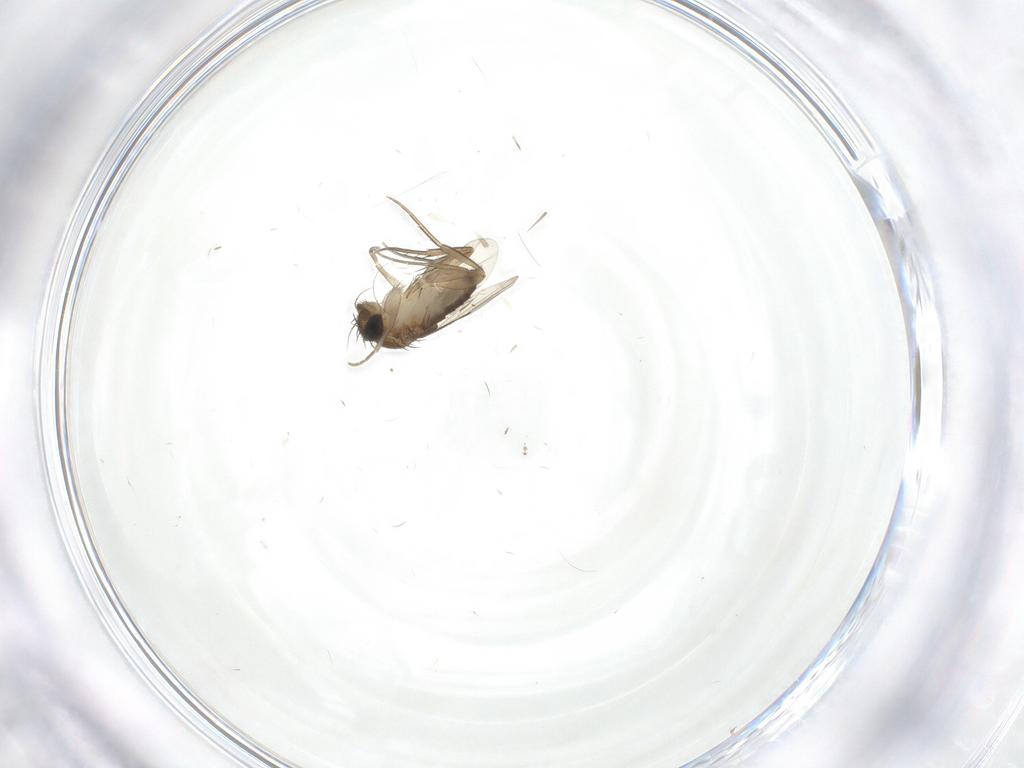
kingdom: Animalia
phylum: Arthropoda
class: Insecta
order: Diptera
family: Phoridae
